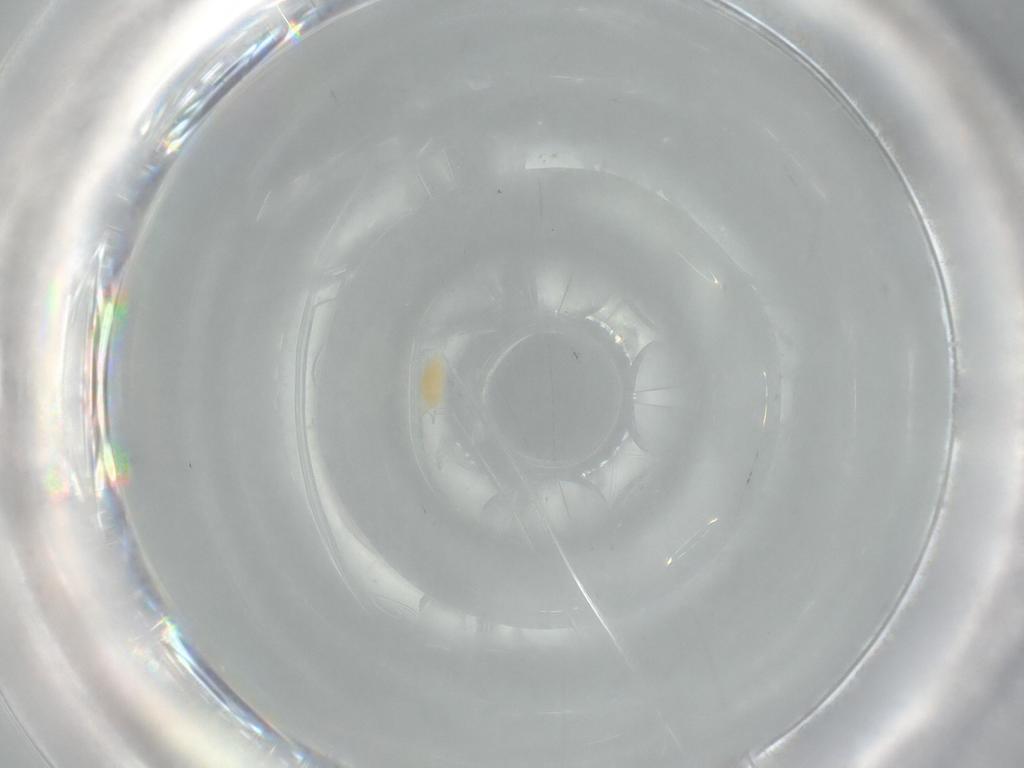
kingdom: Animalia
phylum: Arthropoda
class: Arachnida
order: Trombidiformes
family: Eupodidae
